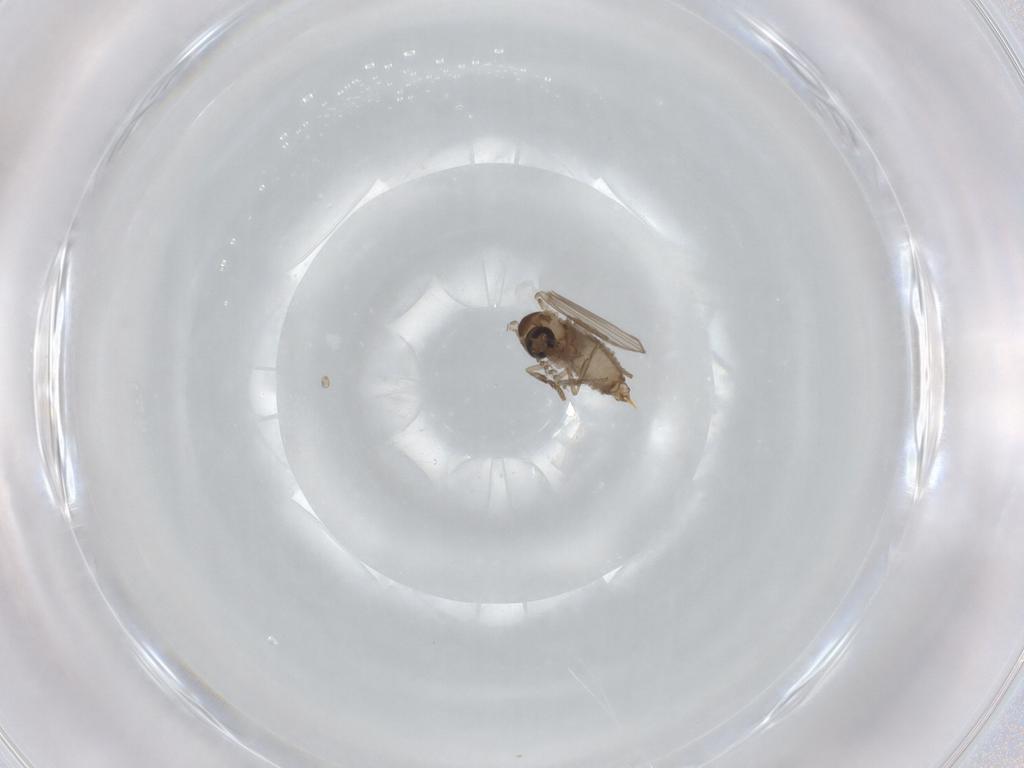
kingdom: Animalia
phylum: Arthropoda
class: Insecta
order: Diptera
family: Psychodidae
